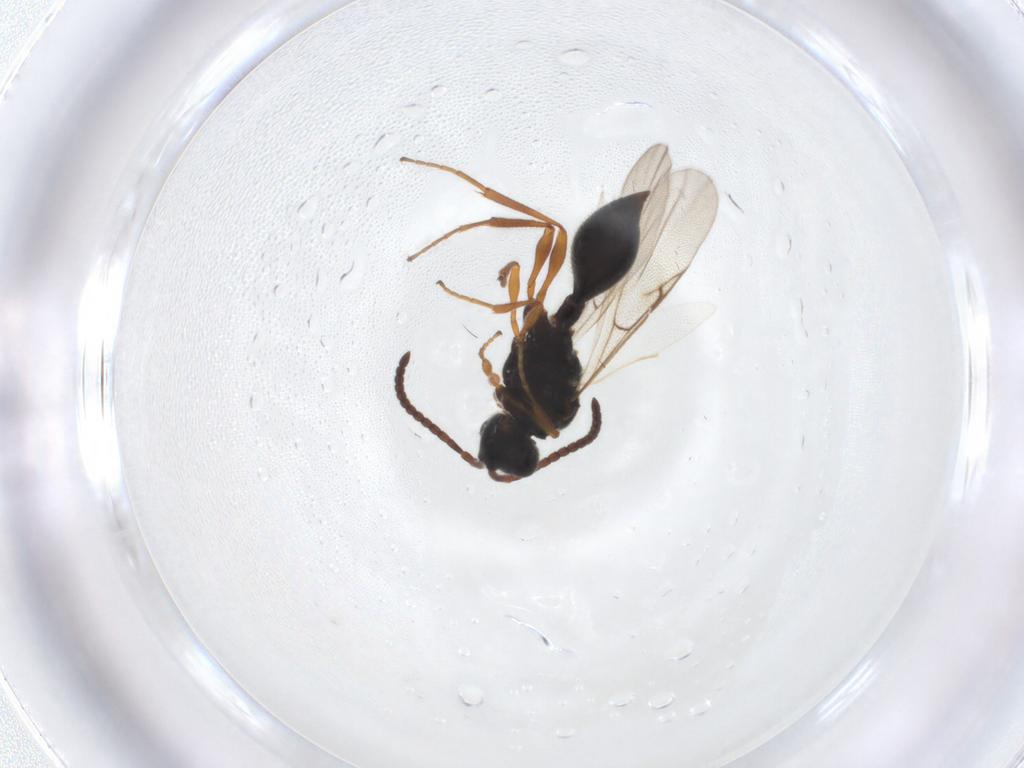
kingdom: Animalia
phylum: Arthropoda
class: Insecta
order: Hymenoptera
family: Diapriidae
